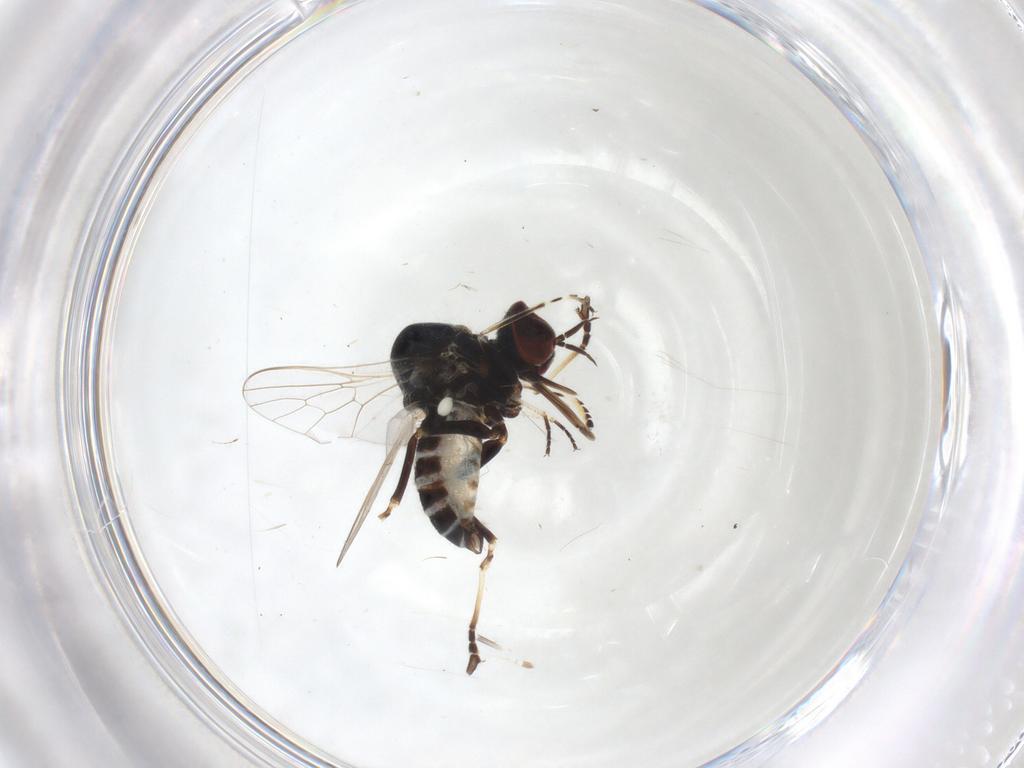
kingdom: Animalia
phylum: Arthropoda
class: Insecta
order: Diptera
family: Mythicomyiidae
